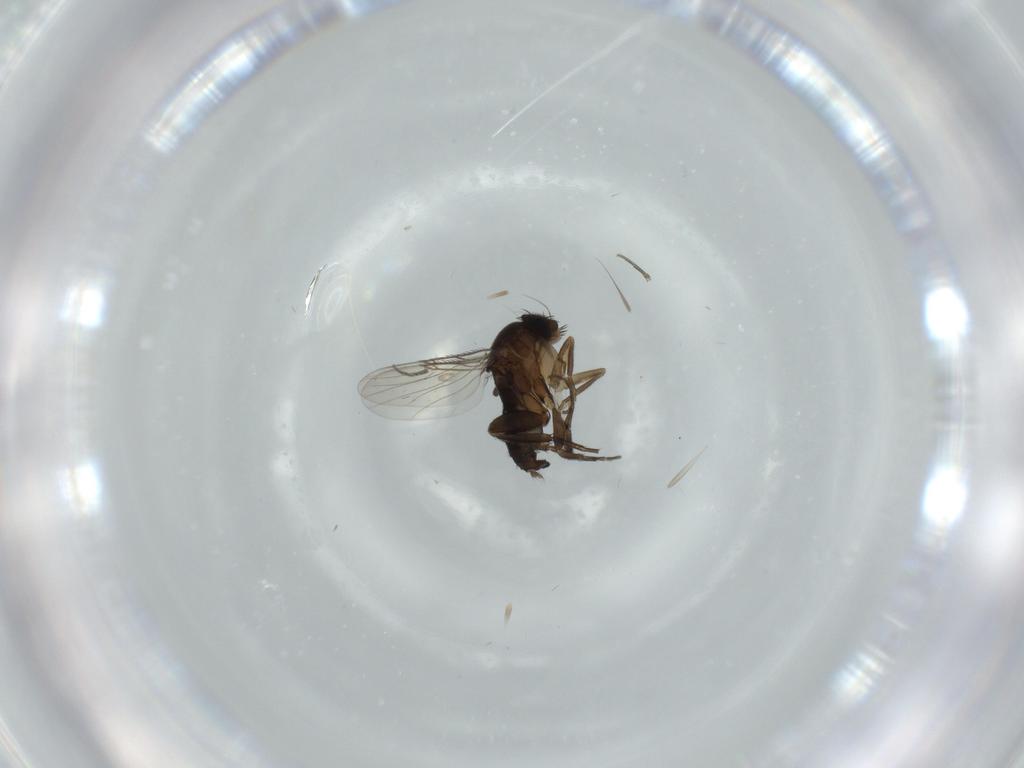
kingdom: Animalia
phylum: Arthropoda
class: Insecta
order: Diptera
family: Phoridae
